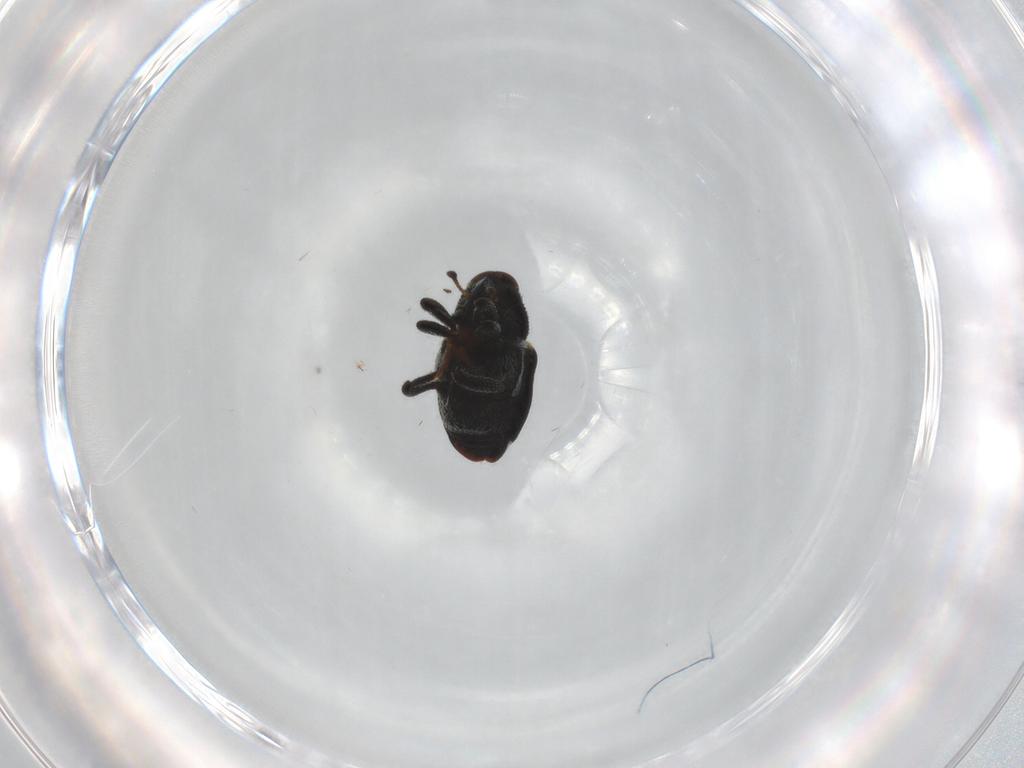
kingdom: Animalia
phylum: Arthropoda
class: Insecta
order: Coleoptera
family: Curculionidae
